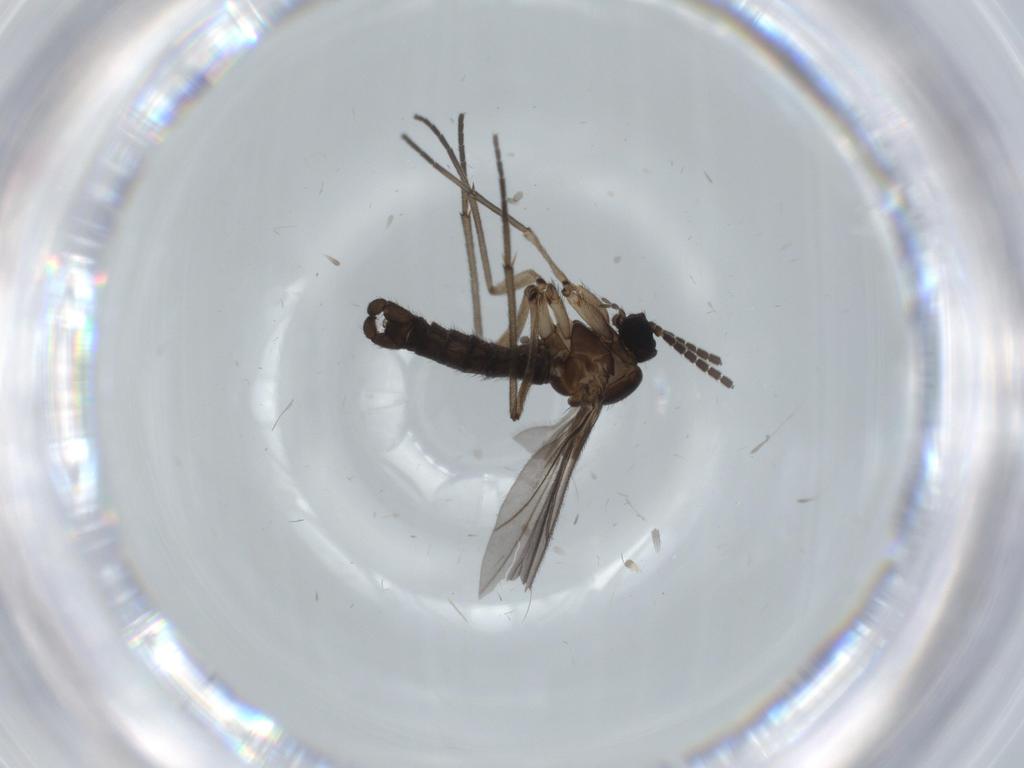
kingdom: Animalia
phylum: Arthropoda
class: Insecta
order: Diptera
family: Sciaridae
